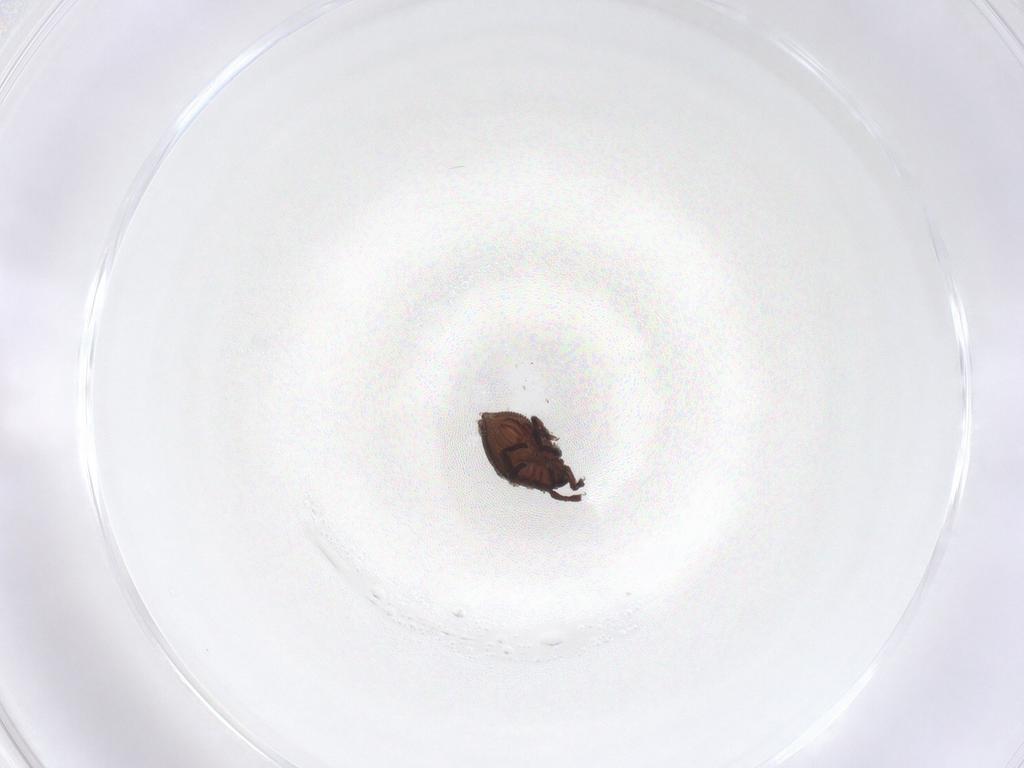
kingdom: Animalia
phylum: Arthropoda
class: Arachnida
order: Sarcoptiformes
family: Neoliodidae
